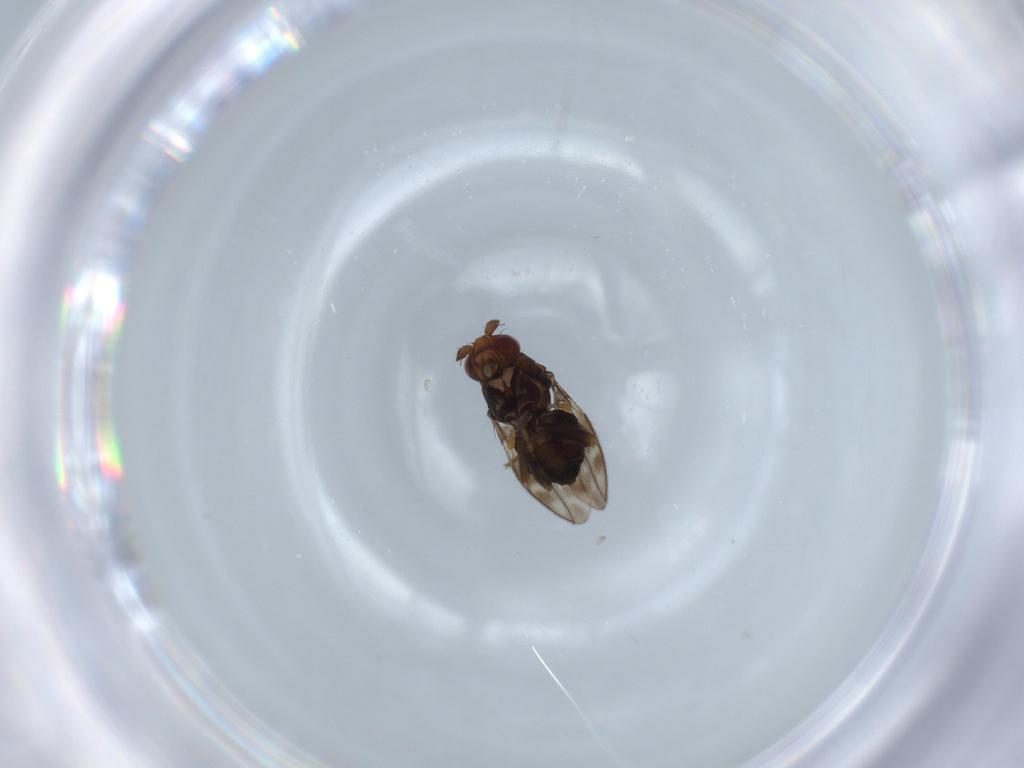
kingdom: Animalia
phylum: Arthropoda
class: Insecta
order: Diptera
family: Sphaeroceridae
